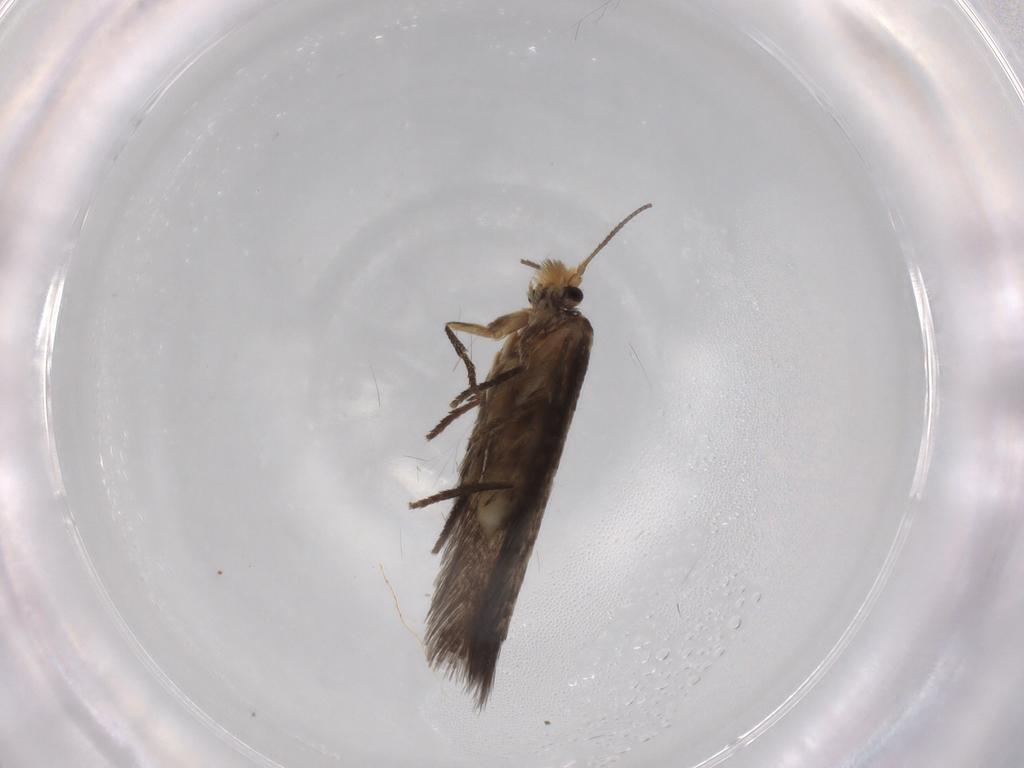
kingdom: Animalia
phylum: Arthropoda
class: Insecta
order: Lepidoptera
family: Nepticulidae
